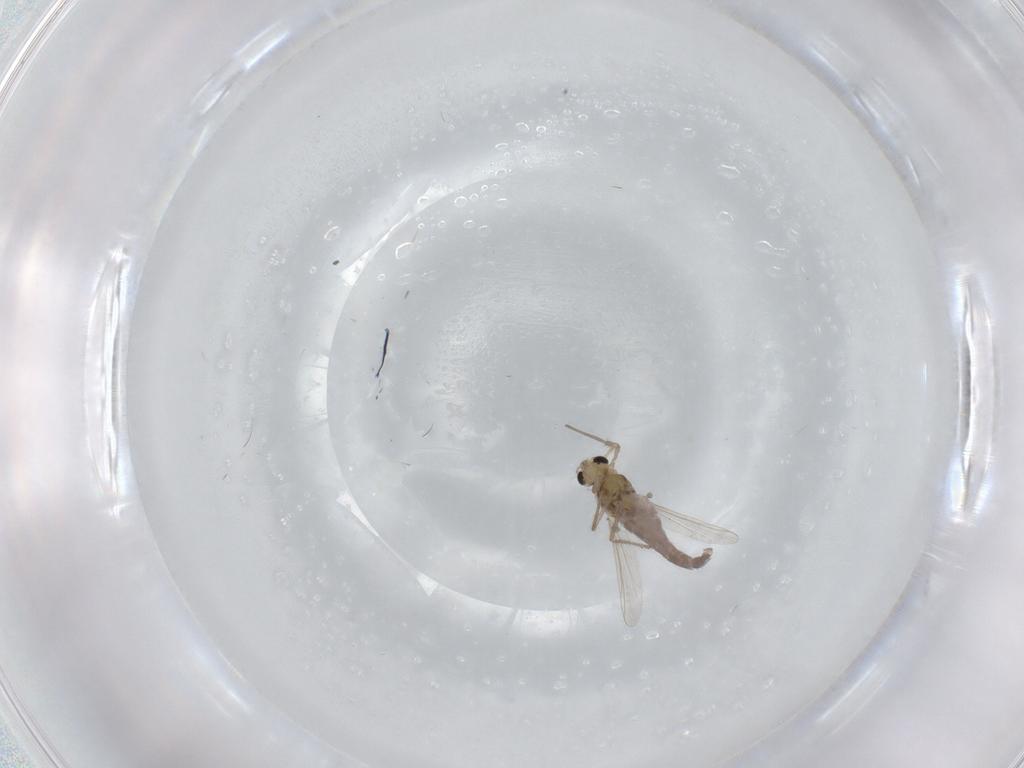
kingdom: Animalia
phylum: Arthropoda
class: Insecta
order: Diptera
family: Chironomidae
